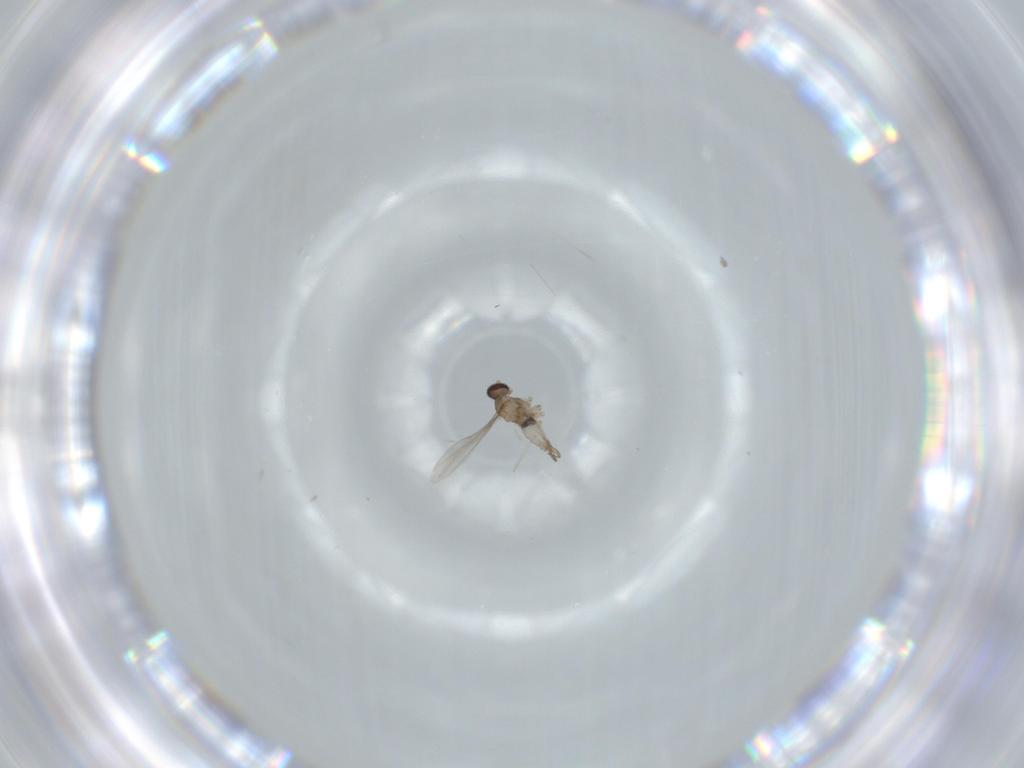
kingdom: Animalia
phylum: Arthropoda
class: Insecta
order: Diptera
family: Cecidomyiidae
